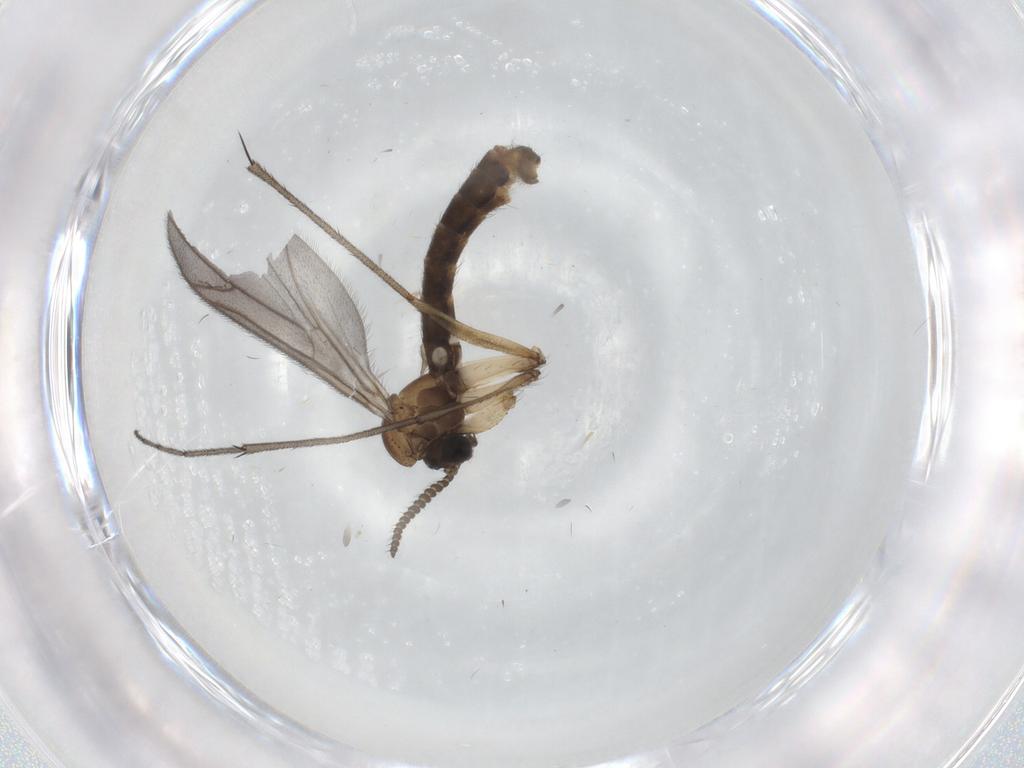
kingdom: Animalia
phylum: Arthropoda
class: Insecta
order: Diptera
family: Ditomyiidae
